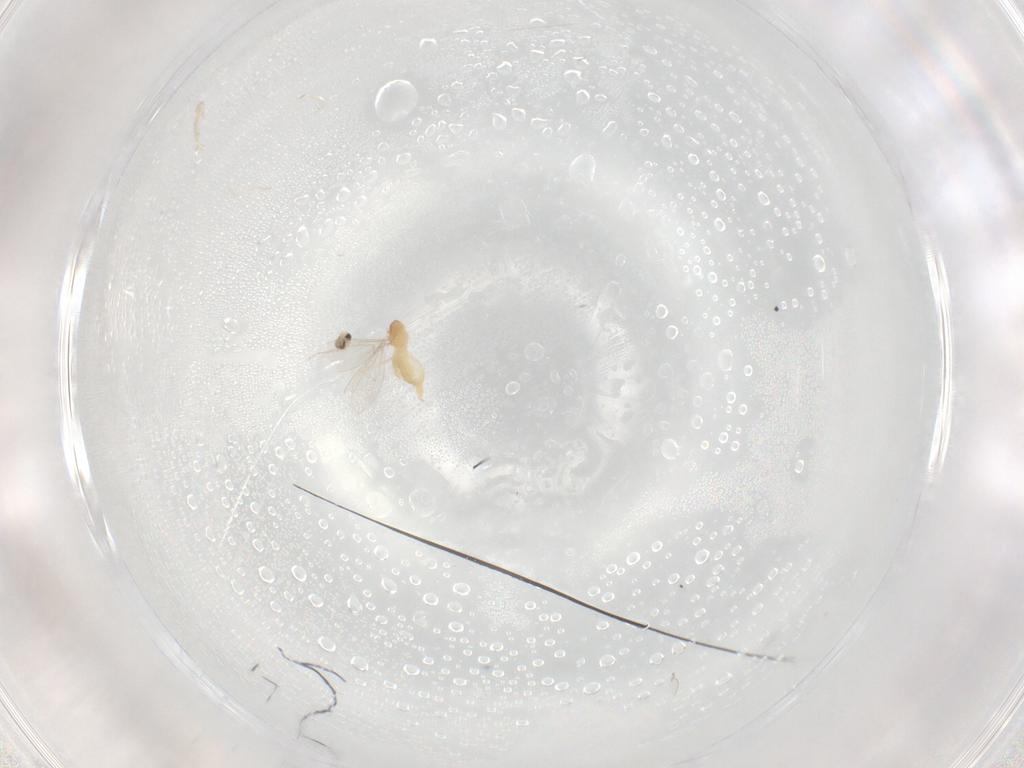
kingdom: Animalia
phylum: Arthropoda
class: Insecta
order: Diptera
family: Cecidomyiidae
